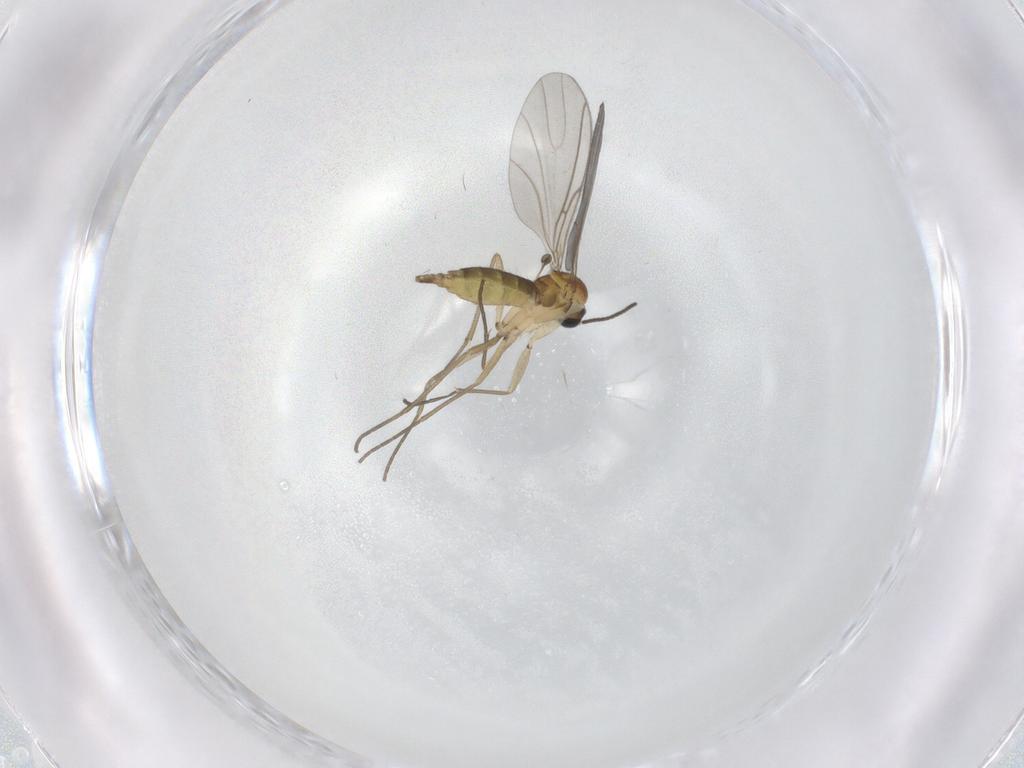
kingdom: Animalia
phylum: Arthropoda
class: Insecta
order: Diptera
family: Sciaridae
